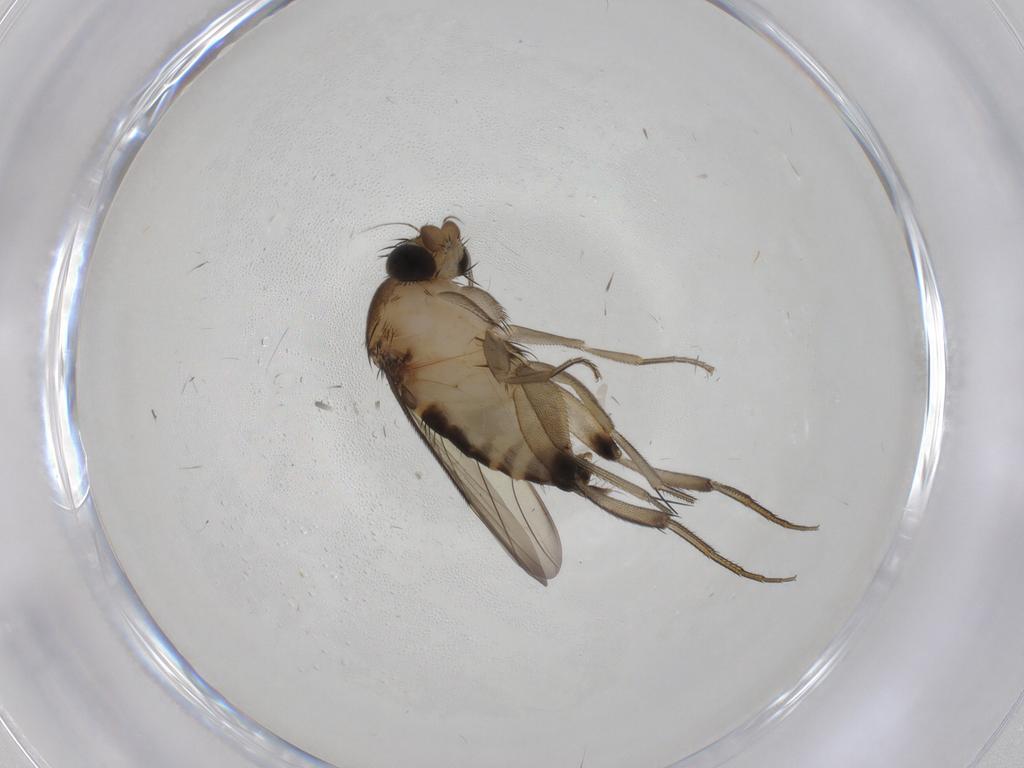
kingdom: Animalia
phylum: Arthropoda
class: Insecta
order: Diptera
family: Phoridae
